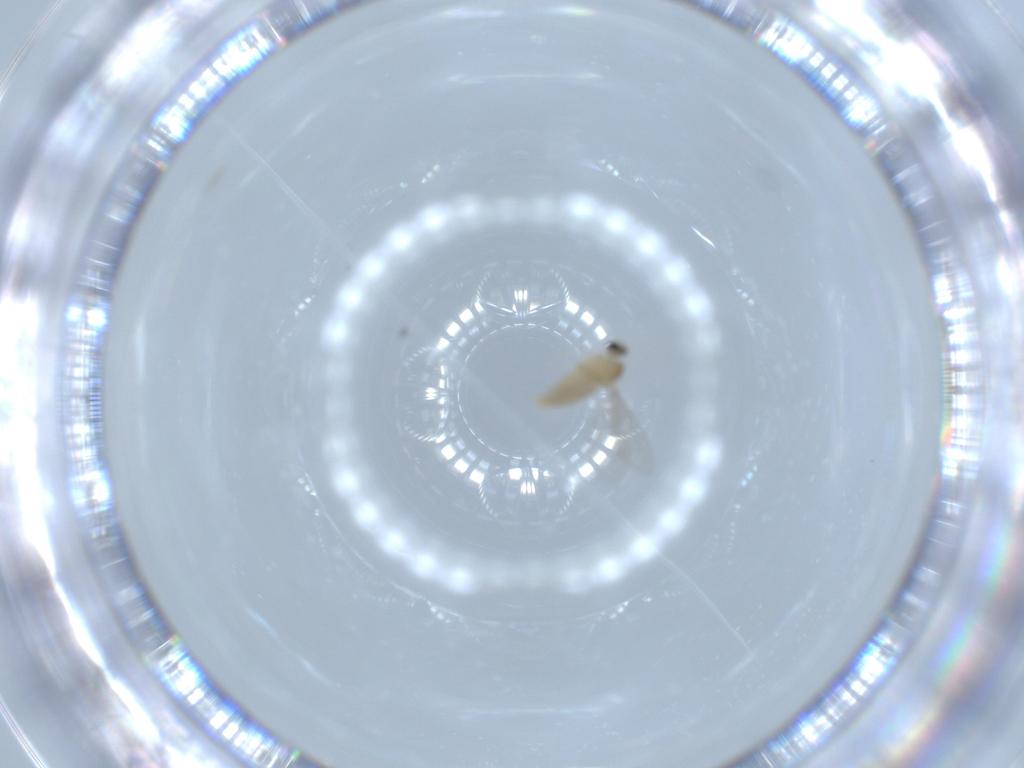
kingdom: Animalia
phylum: Arthropoda
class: Insecta
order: Diptera
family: Cecidomyiidae
